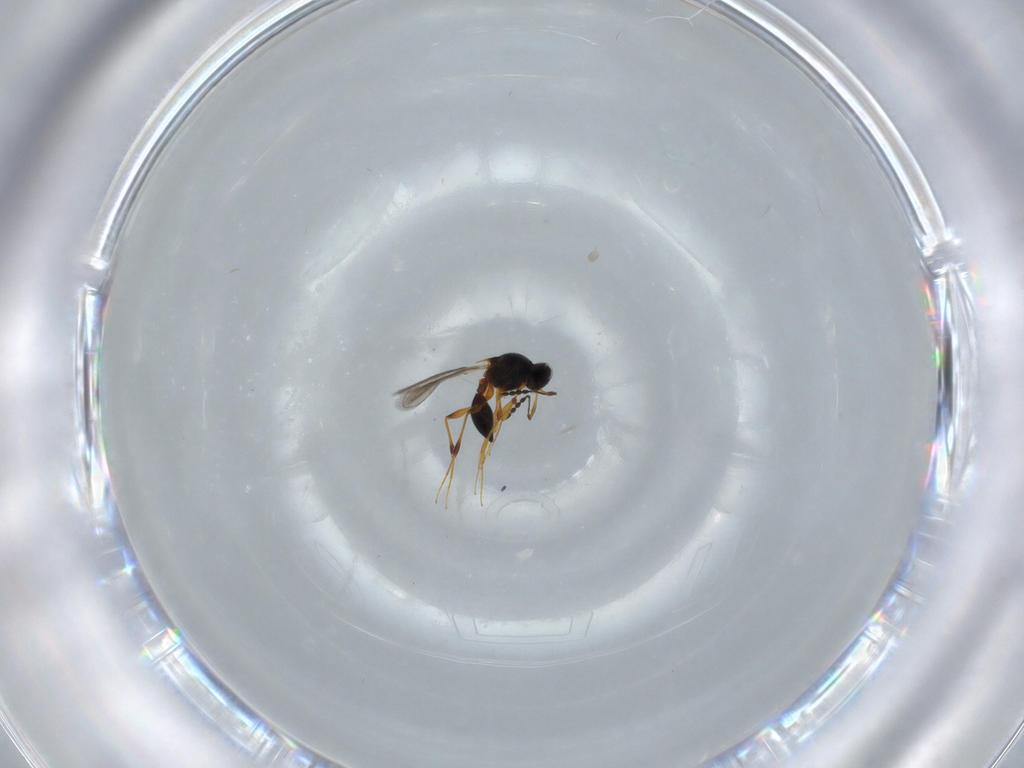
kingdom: Animalia
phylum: Arthropoda
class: Insecta
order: Hymenoptera
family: Platygastridae
